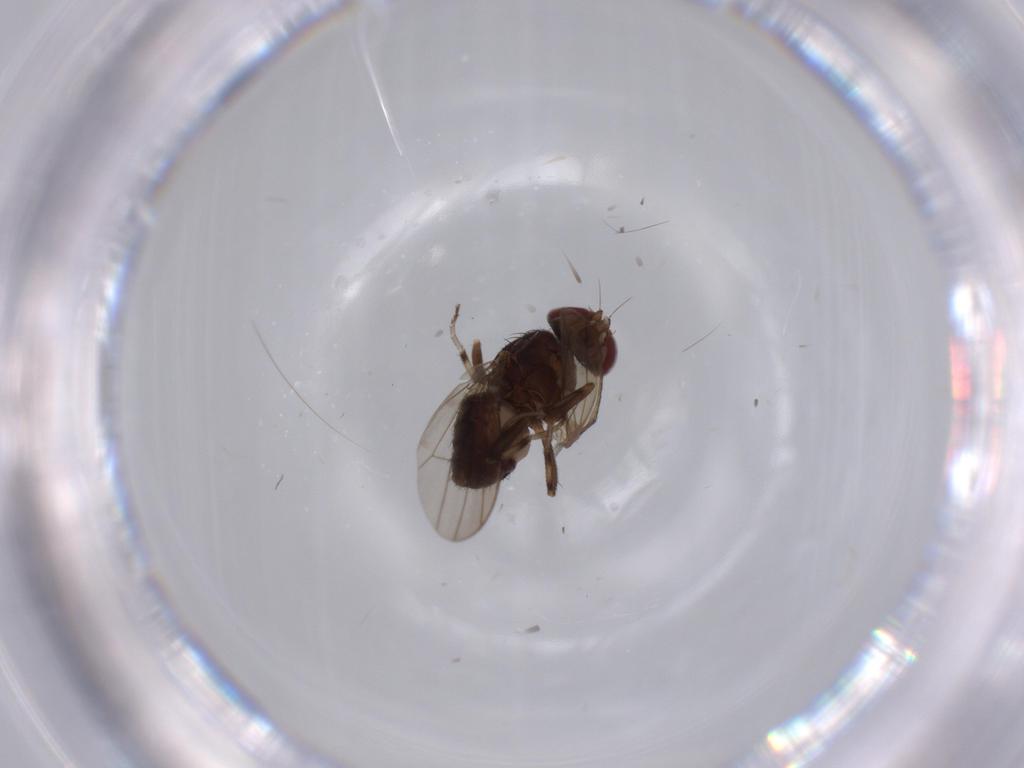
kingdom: Animalia
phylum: Arthropoda
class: Insecta
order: Diptera
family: Heleomyzidae
